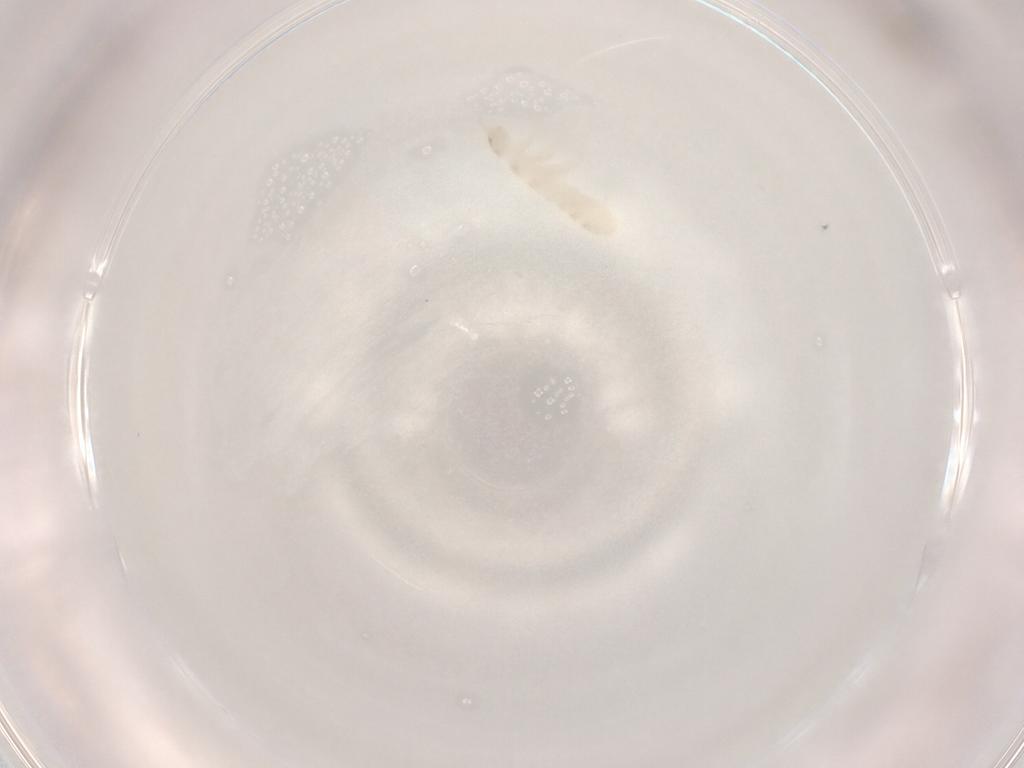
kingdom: Animalia
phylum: Arthropoda
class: Collembola
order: Entomobryomorpha
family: Isotomidae
